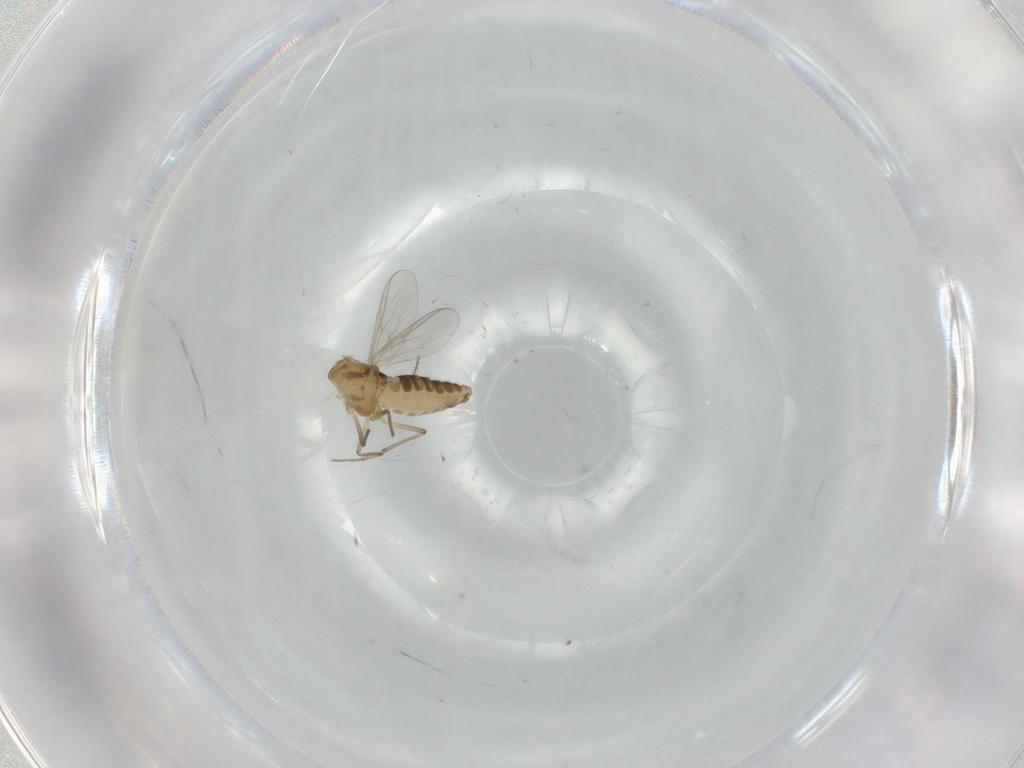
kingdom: Animalia
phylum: Arthropoda
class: Insecta
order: Diptera
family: Chironomidae
